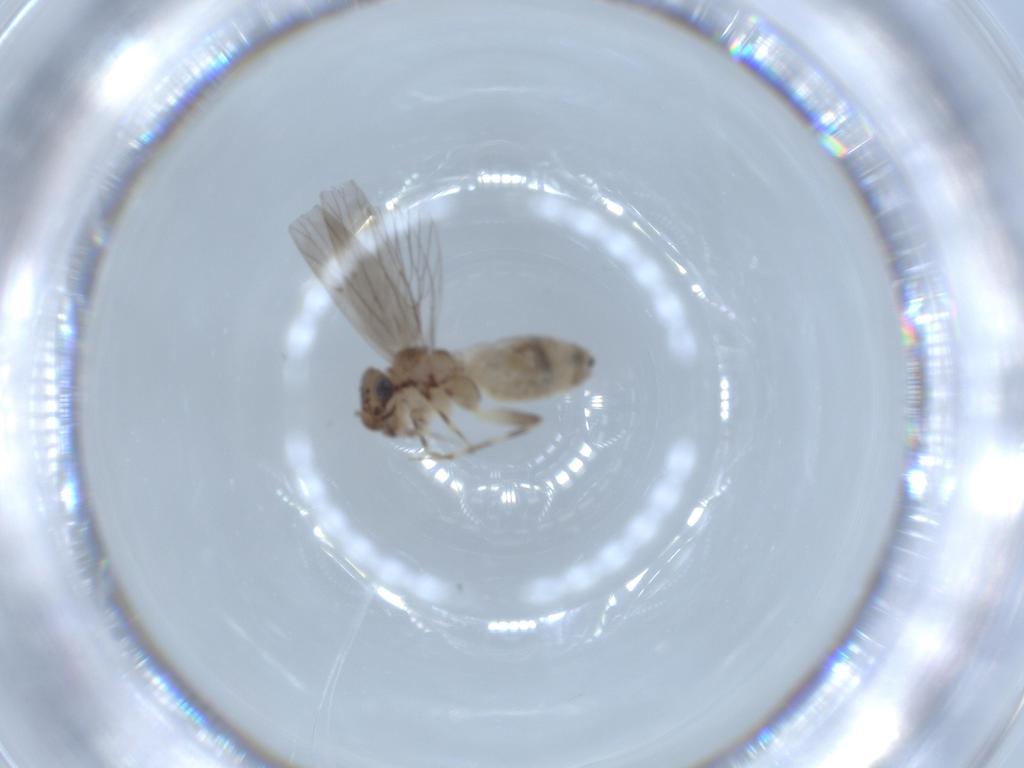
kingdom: Animalia
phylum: Arthropoda
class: Insecta
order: Psocodea
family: Lepidopsocidae
